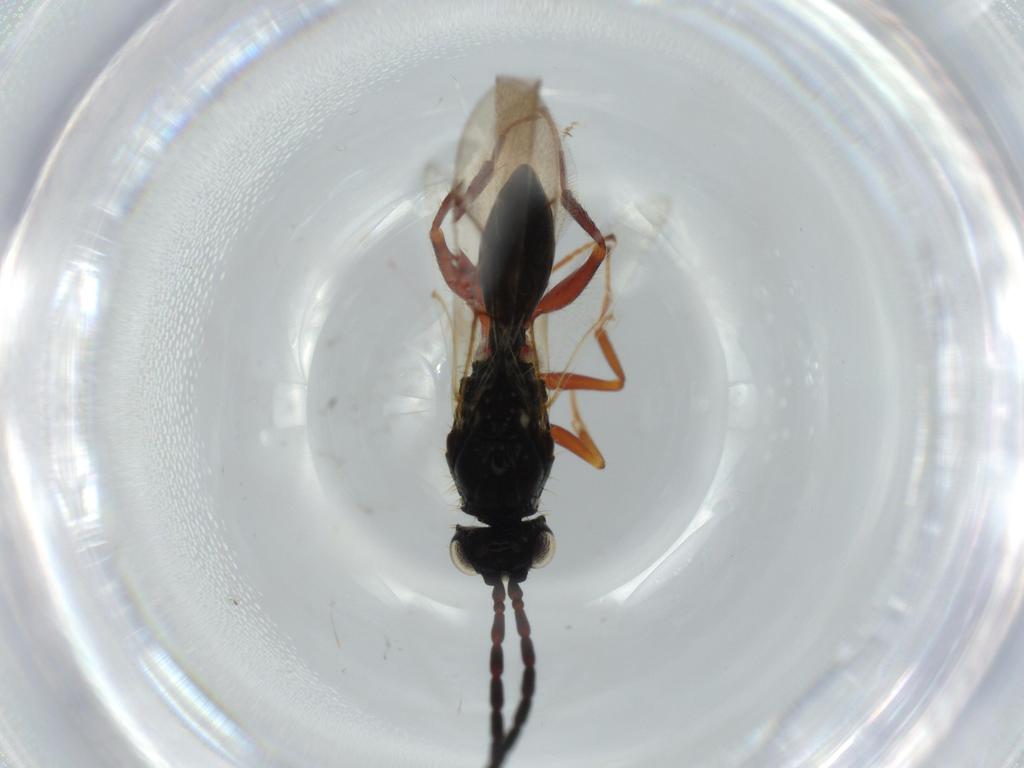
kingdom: Animalia
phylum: Arthropoda
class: Insecta
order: Hymenoptera
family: Figitidae
